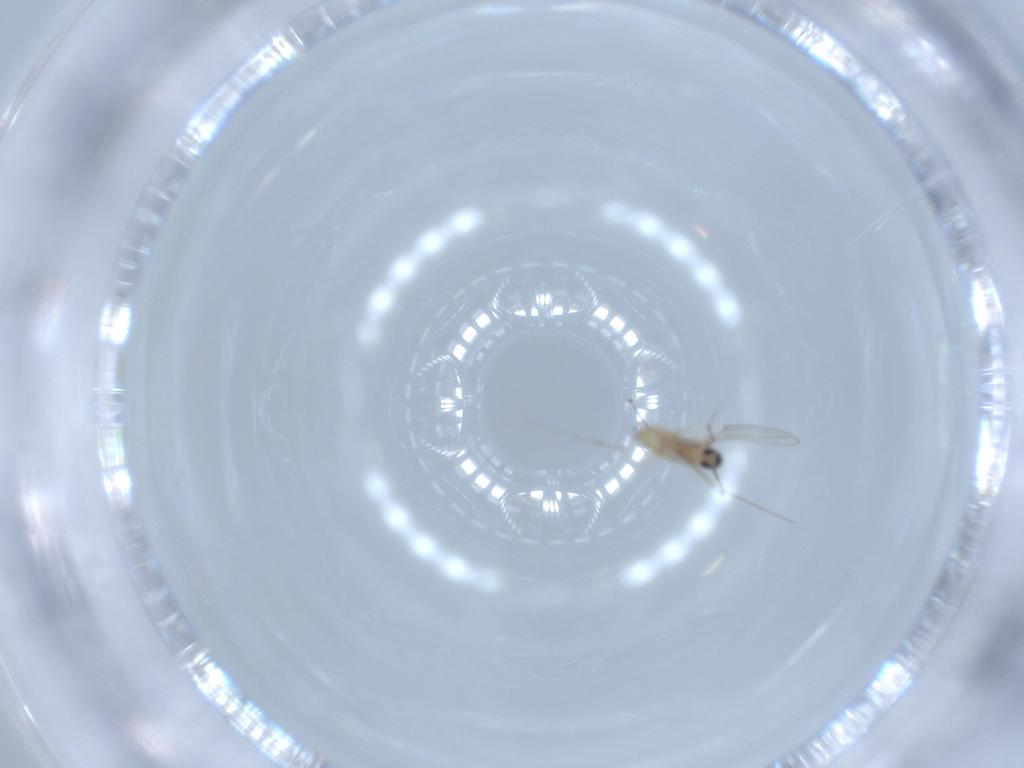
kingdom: Animalia
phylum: Arthropoda
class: Insecta
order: Diptera
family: Cecidomyiidae
